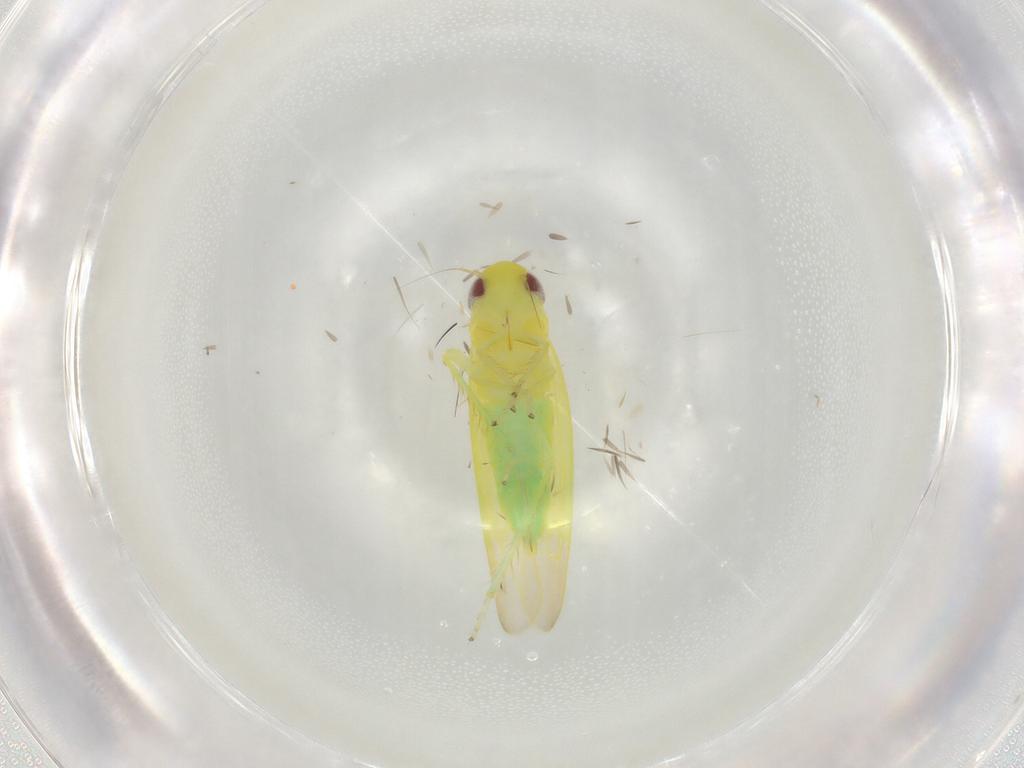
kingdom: Animalia
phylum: Arthropoda
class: Insecta
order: Hemiptera
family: Cicadellidae
